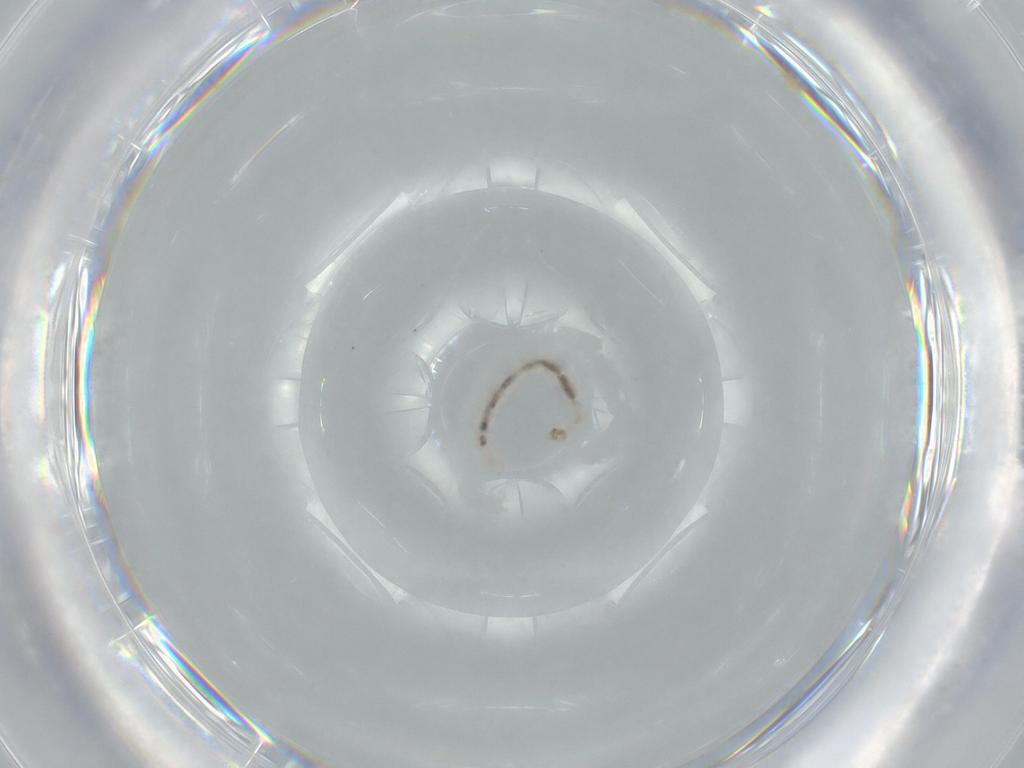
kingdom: Animalia
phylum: Arthropoda
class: Insecta
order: Diptera
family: Chironomidae
